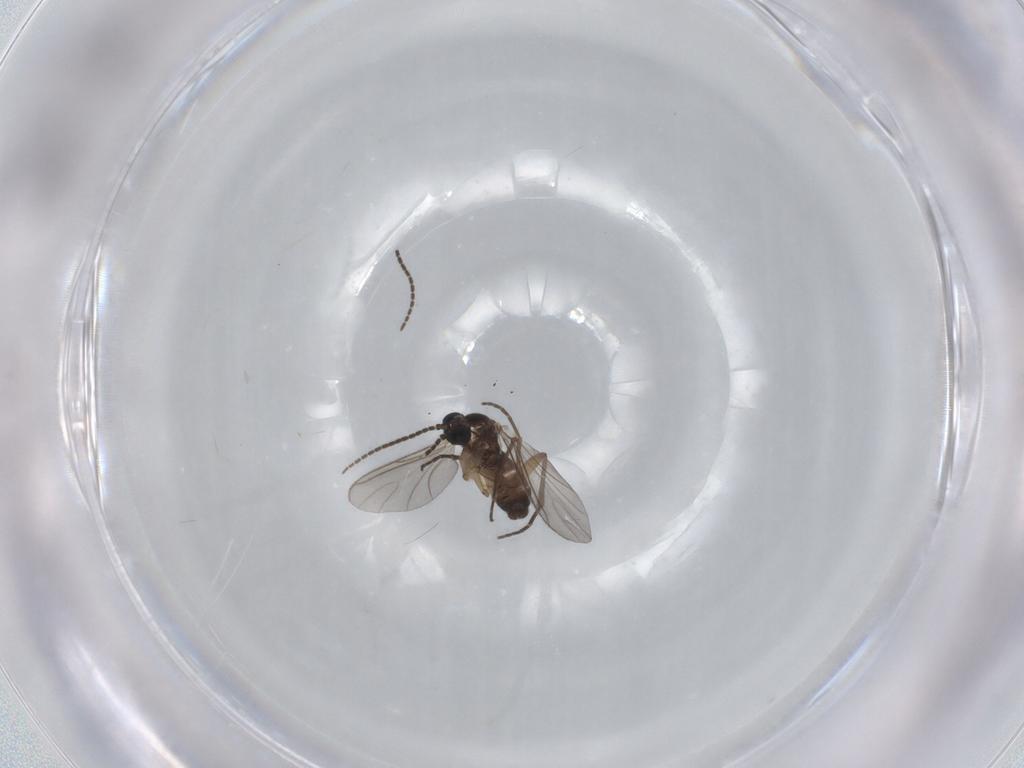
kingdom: Animalia
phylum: Arthropoda
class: Insecta
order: Diptera
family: Sciaridae
